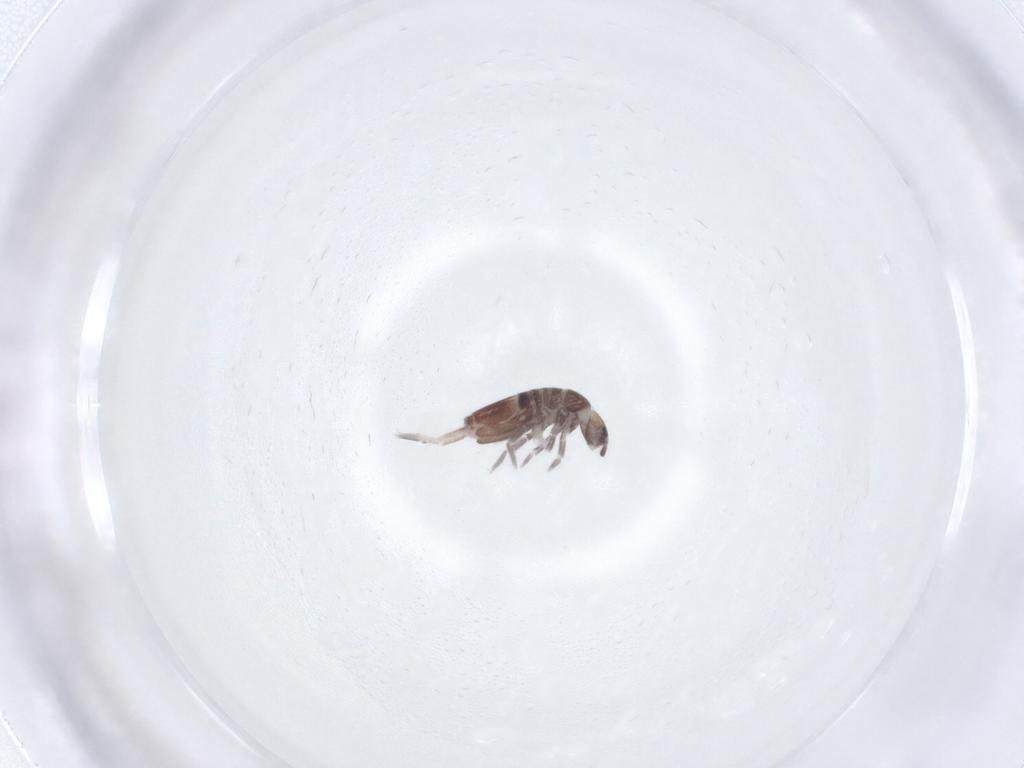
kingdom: Animalia
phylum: Arthropoda
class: Collembola
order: Entomobryomorpha
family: Entomobryidae
